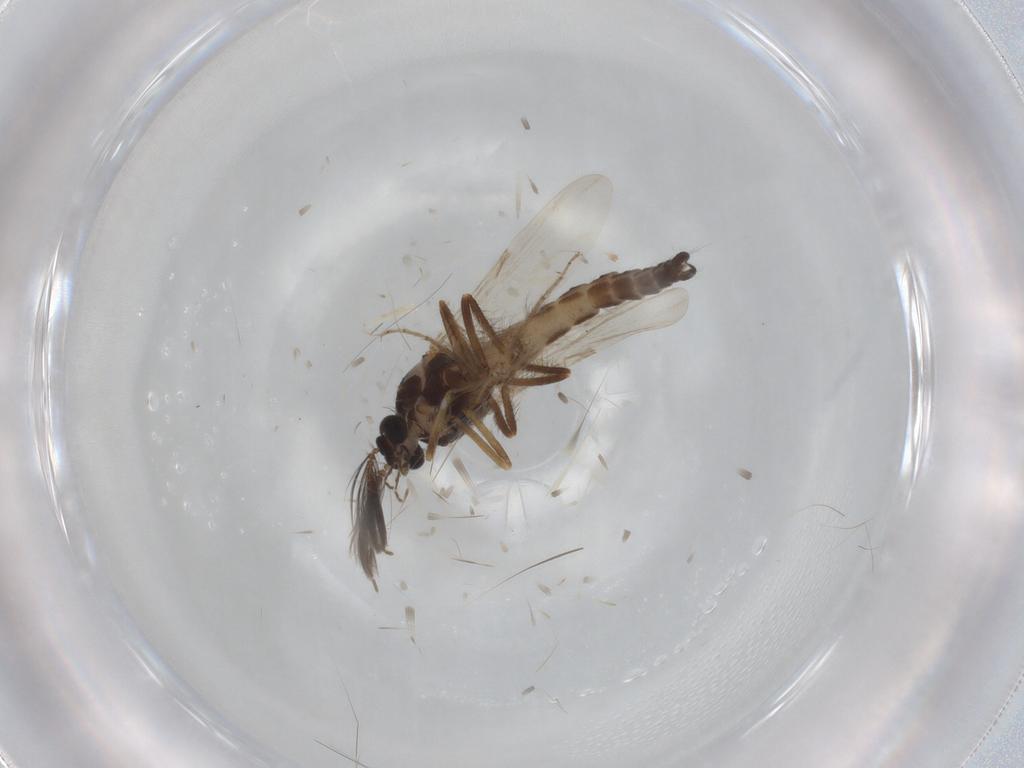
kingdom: Animalia
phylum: Arthropoda
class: Insecta
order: Diptera
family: Ceratopogonidae
